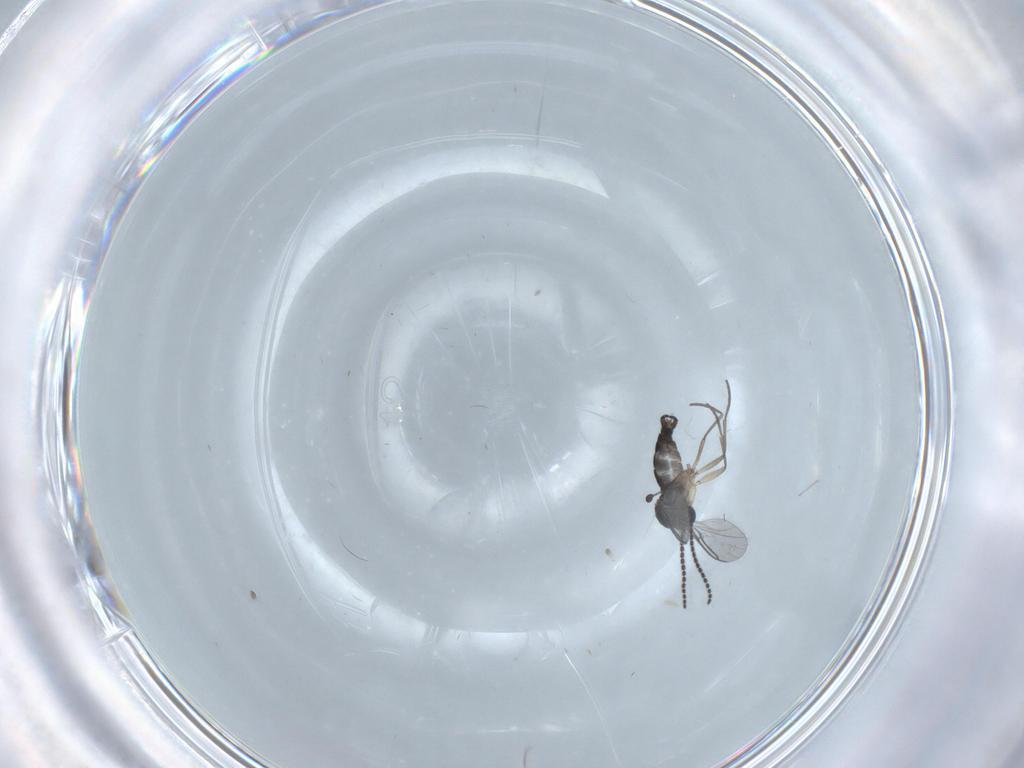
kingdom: Animalia
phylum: Arthropoda
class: Insecta
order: Diptera
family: Sciaridae
